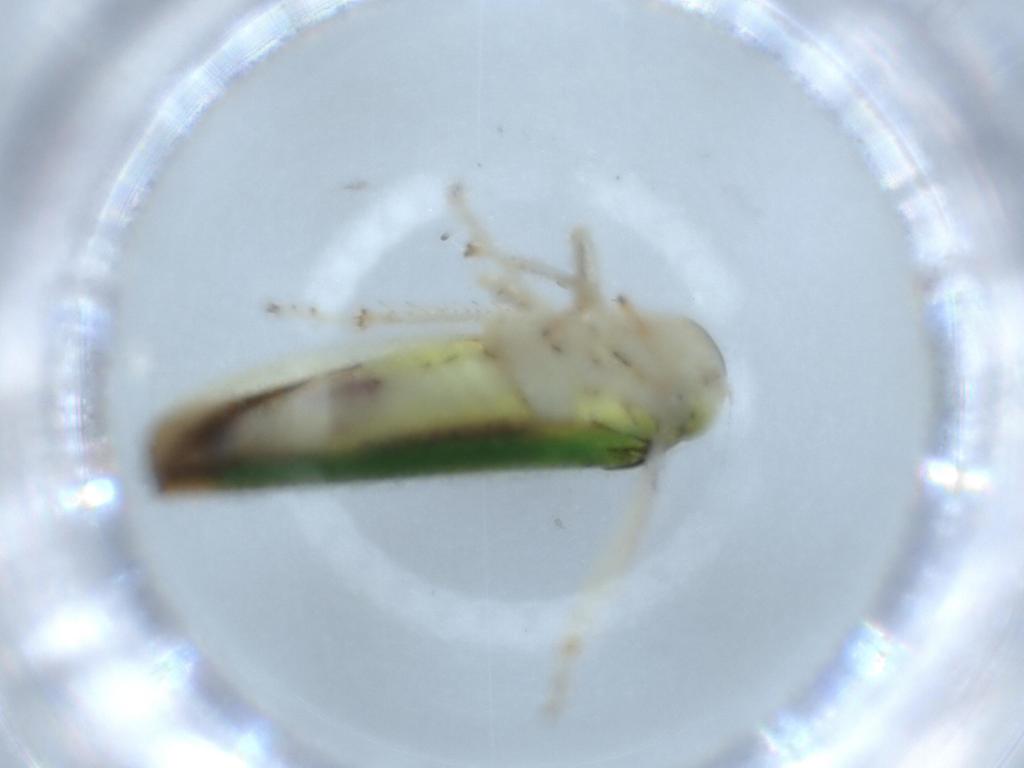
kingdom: Animalia
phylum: Arthropoda
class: Insecta
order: Hemiptera
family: Cicadellidae
